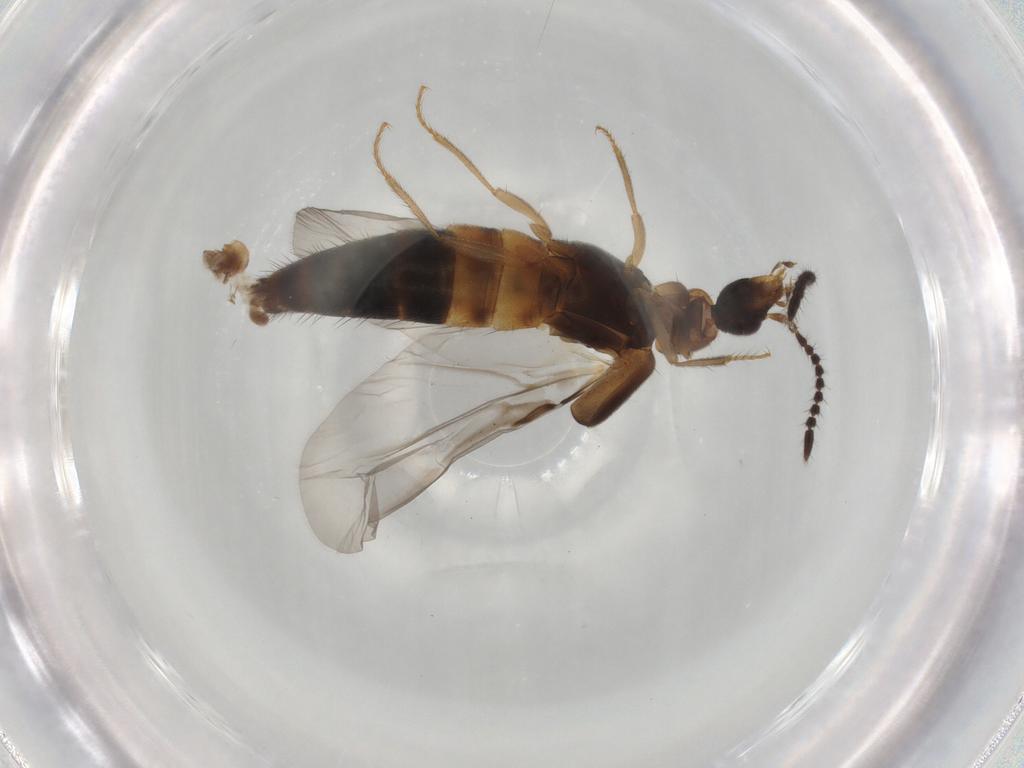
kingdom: Animalia
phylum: Arthropoda
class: Insecta
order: Coleoptera
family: Staphylinidae
